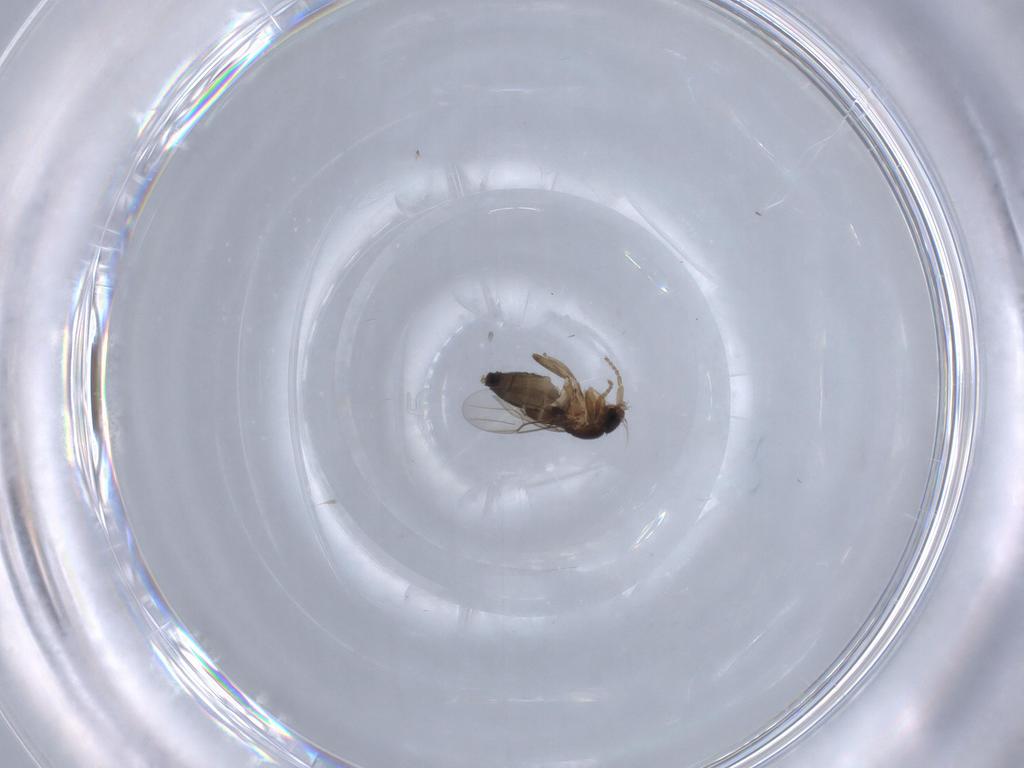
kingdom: Animalia
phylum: Arthropoda
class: Insecta
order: Diptera
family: Phoridae
